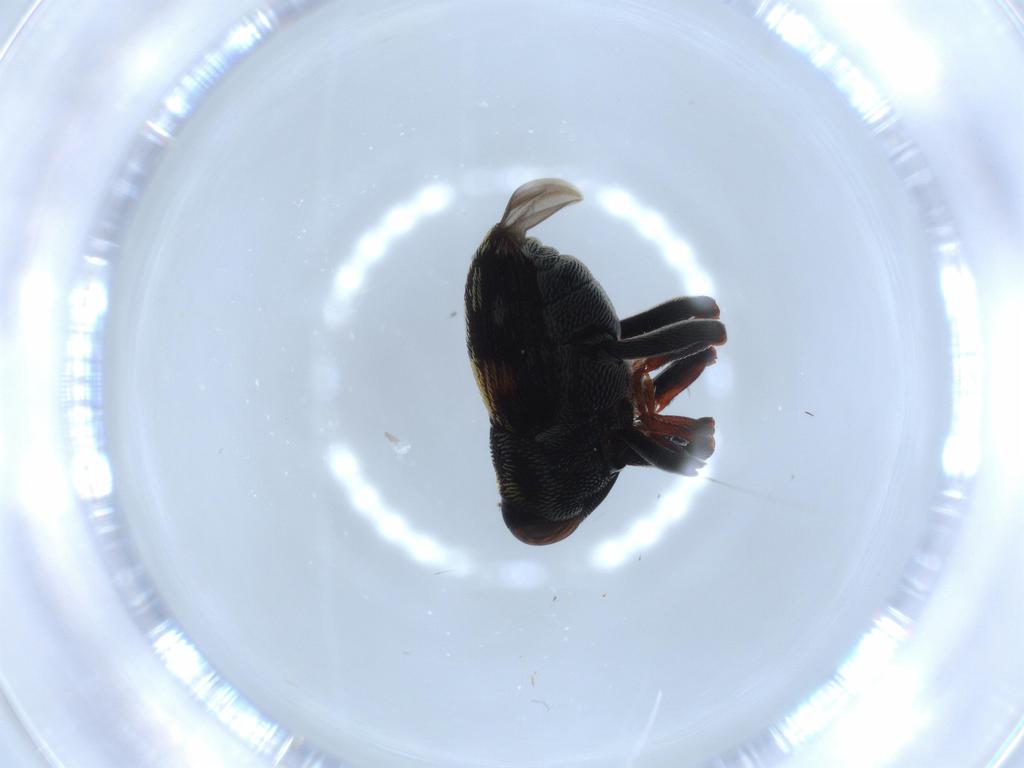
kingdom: Animalia
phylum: Arthropoda
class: Insecta
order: Coleoptera
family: Curculionidae
